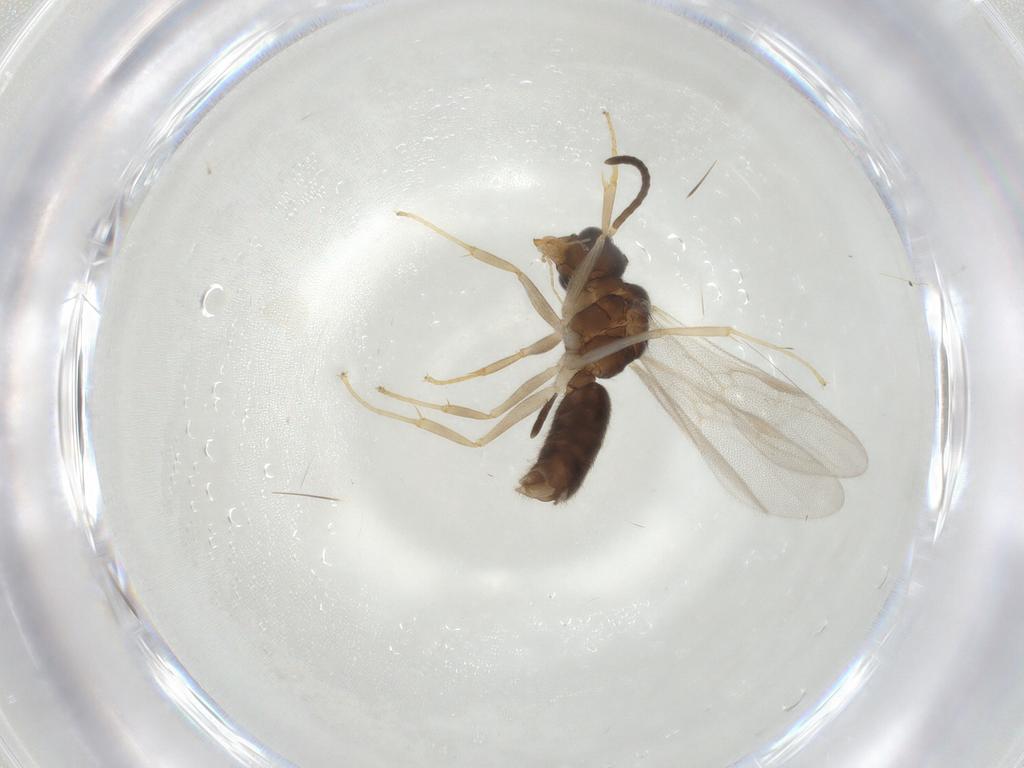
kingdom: Animalia
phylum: Arthropoda
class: Insecta
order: Hymenoptera
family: Formicidae
